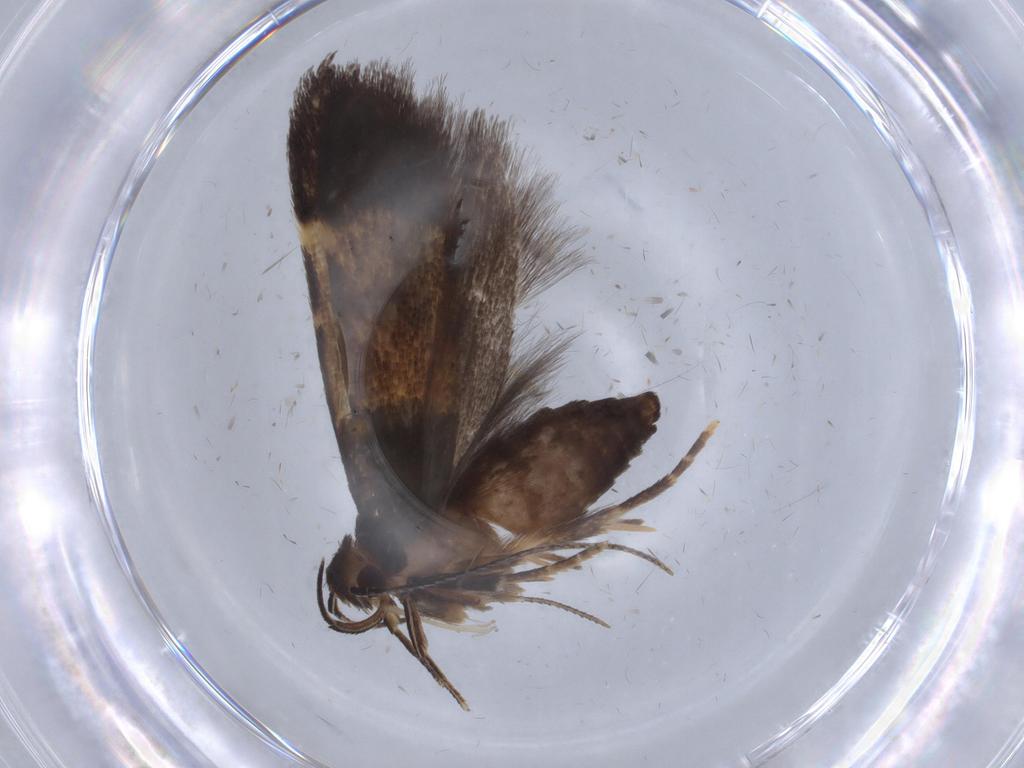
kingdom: Animalia
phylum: Arthropoda
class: Insecta
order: Lepidoptera
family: Cosmopterigidae
